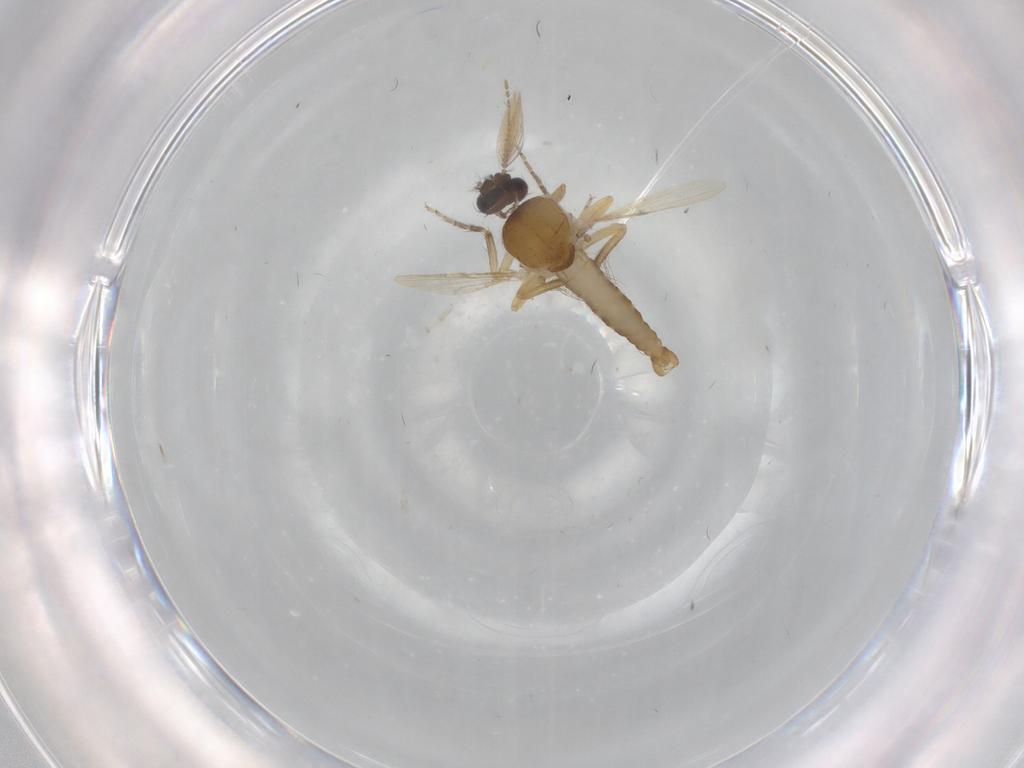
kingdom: Animalia
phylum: Arthropoda
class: Insecta
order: Diptera
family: Ceratopogonidae
